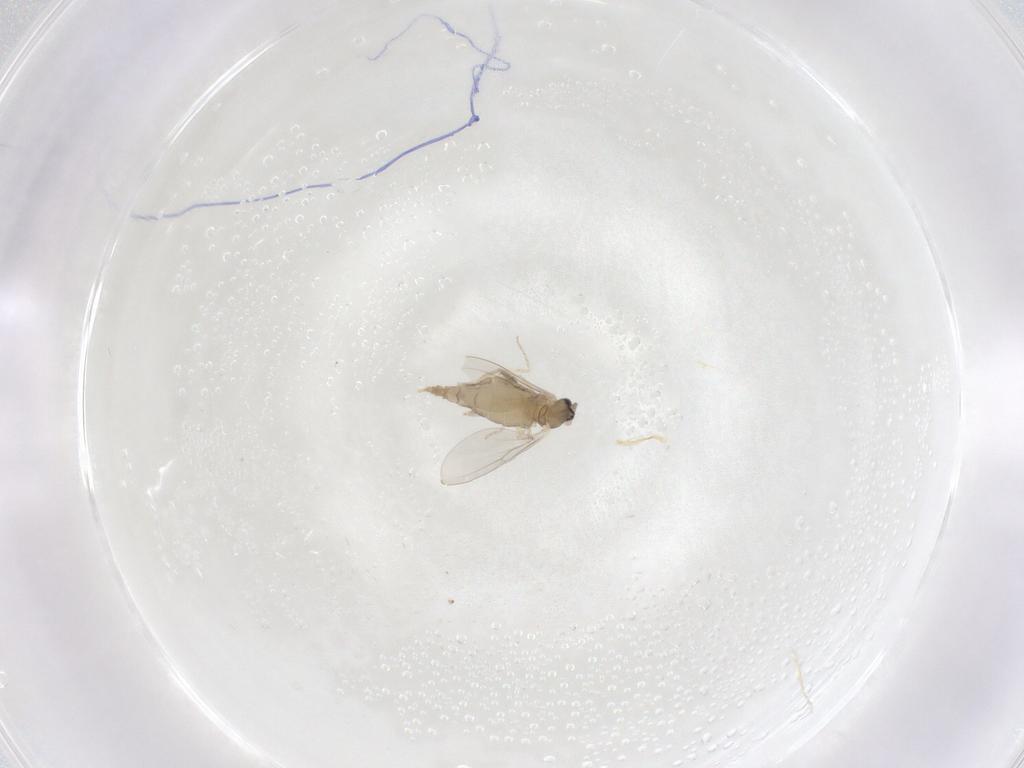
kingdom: Animalia
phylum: Arthropoda
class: Insecta
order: Diptera
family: Cecidomyiidae
